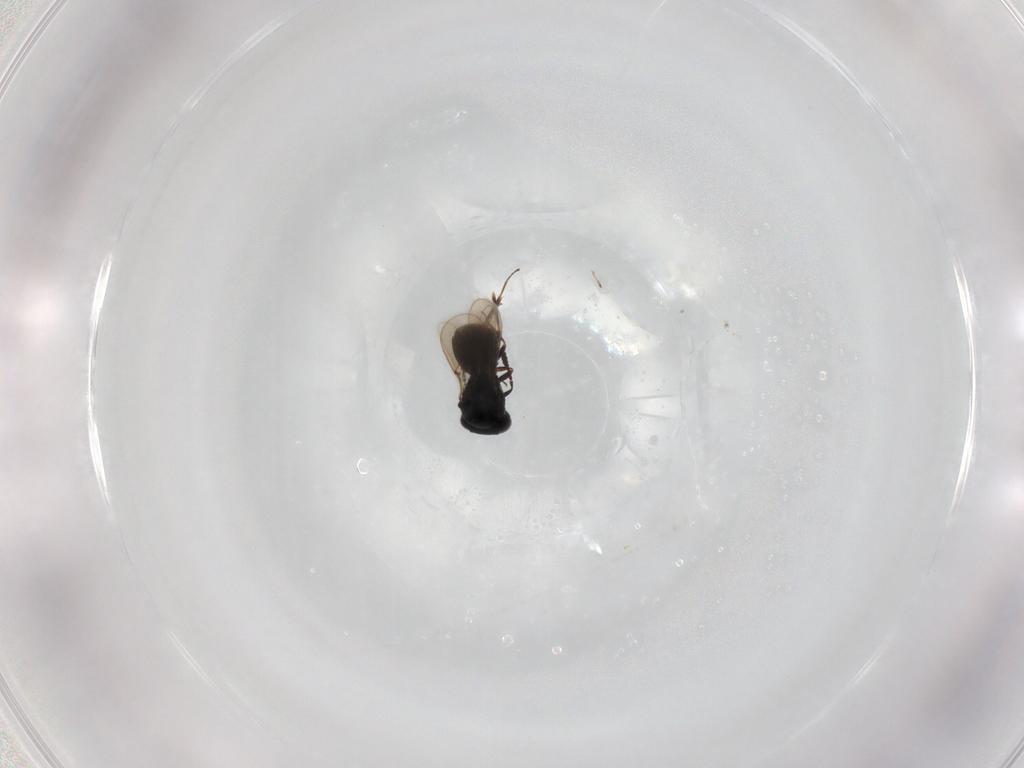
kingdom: Animalia
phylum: Arthropoda
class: Insecta
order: Hymenoptera
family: Scelionidae
